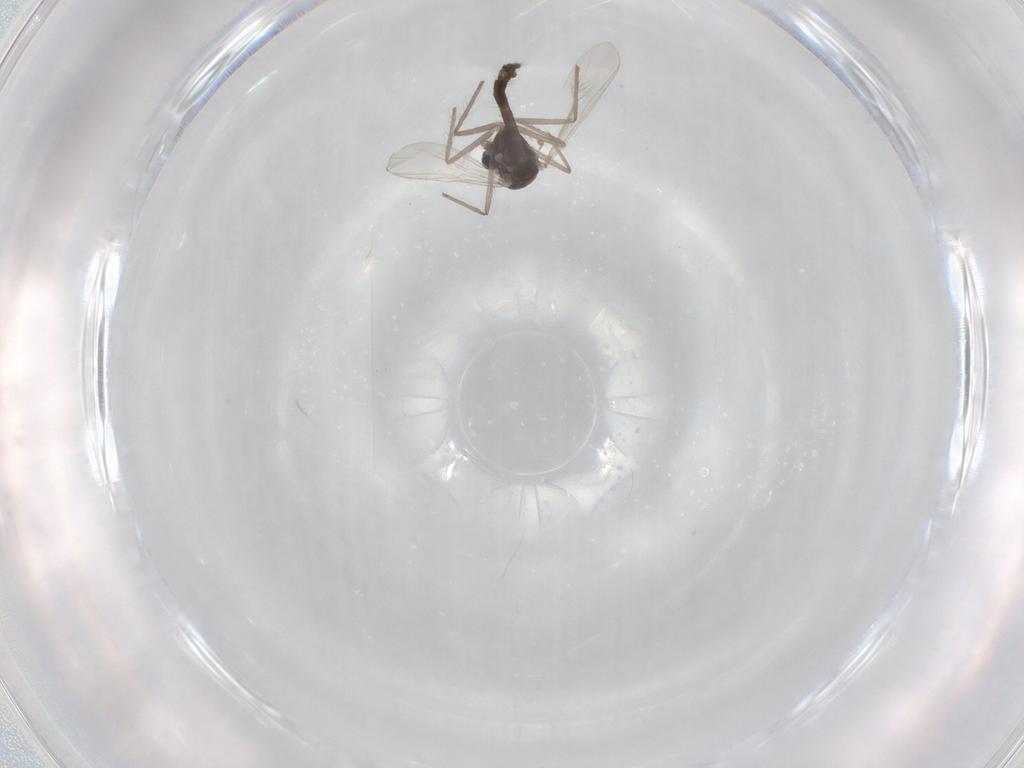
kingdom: Animalia
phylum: Arthropoda
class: Insecta
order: Diptera
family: Chironomidae
